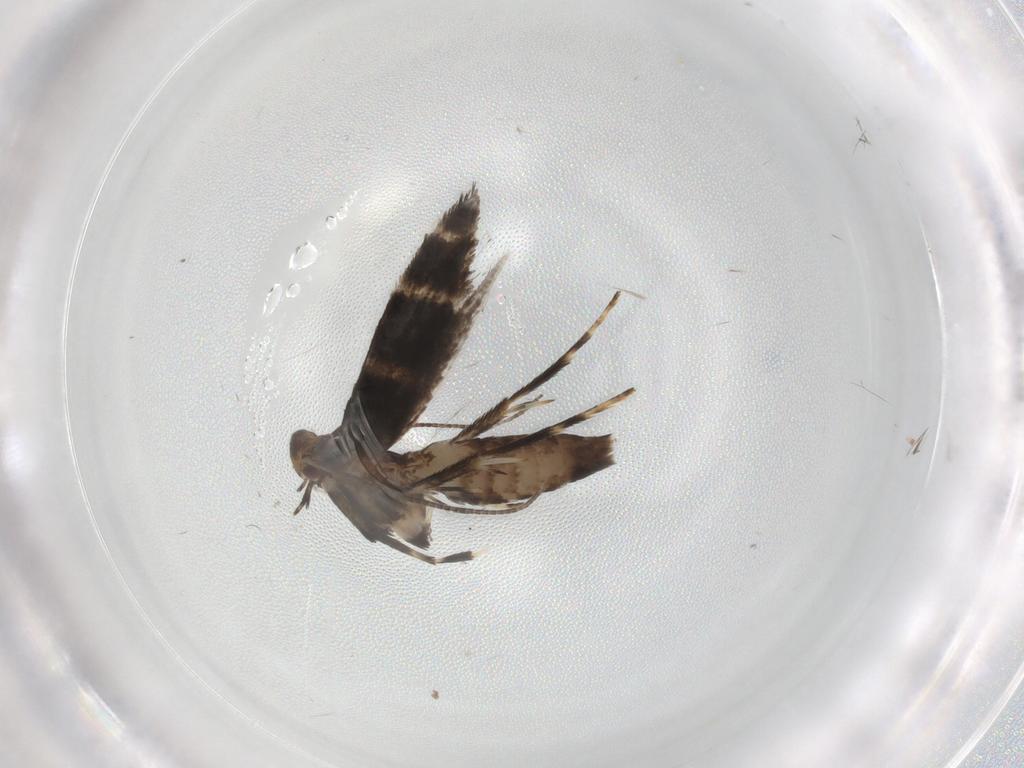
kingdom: Animalia
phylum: Arthropoda
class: Insecta
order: Lepidoptera
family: Gracillariidae
